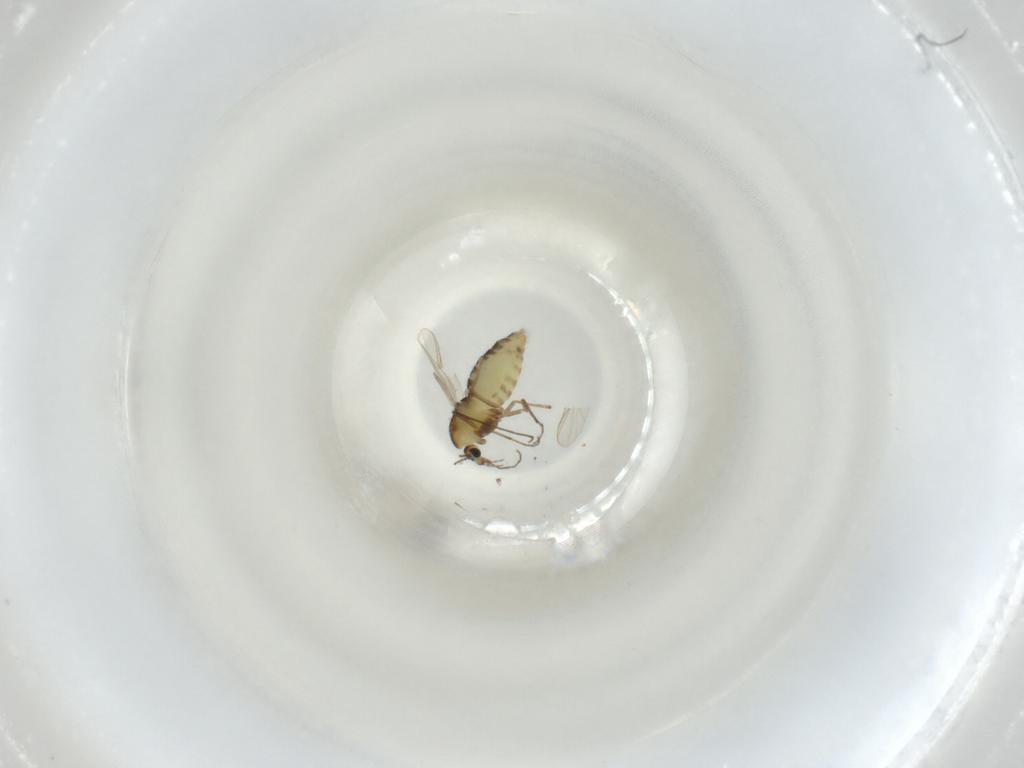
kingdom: Animalia
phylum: Arthropoda
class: Insecta
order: Diptera
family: Chironomidae
